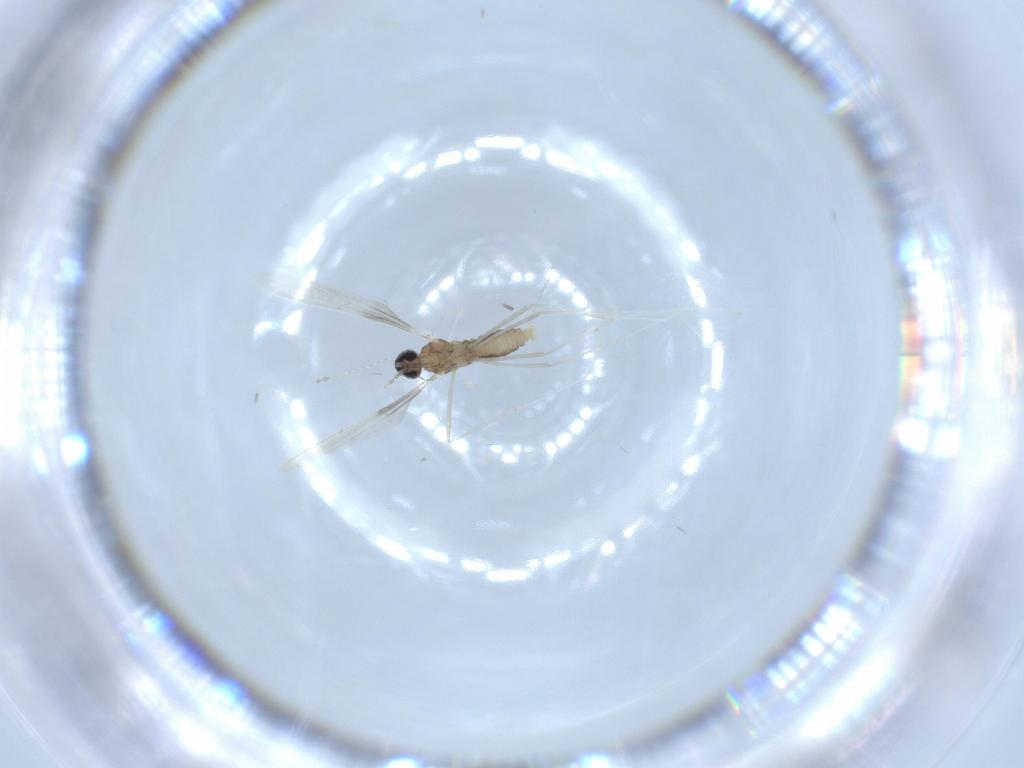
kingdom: Animalia
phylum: Arthropoda
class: Insecta
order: Diptera
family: Cecidomyiidae
